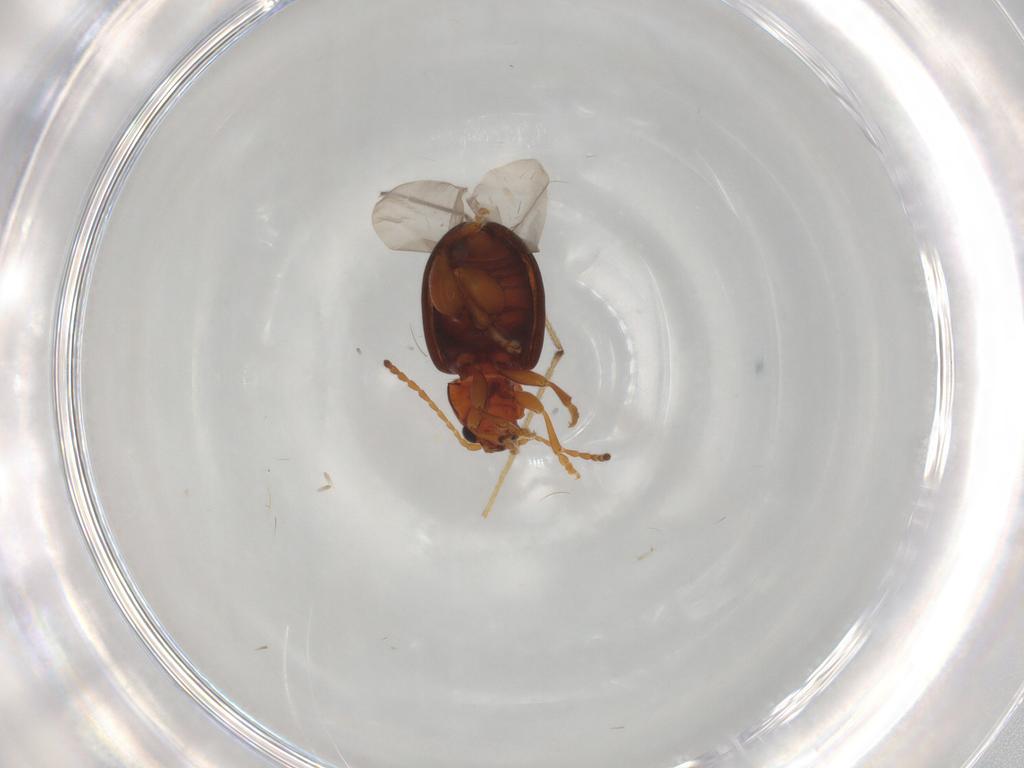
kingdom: Animalia
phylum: Arthropoda
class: Insecta
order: Coleoptera
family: Chrysomelidae
